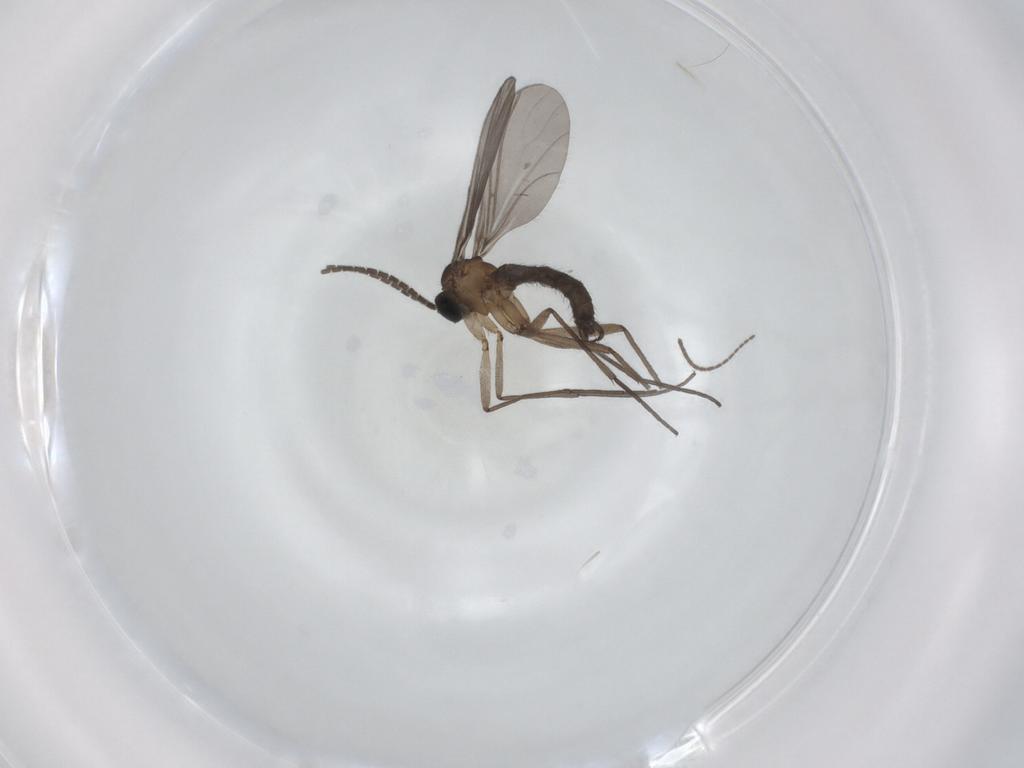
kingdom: Animalia
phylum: Arthropoda
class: Insecta
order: Diptera
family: Sciaridae
